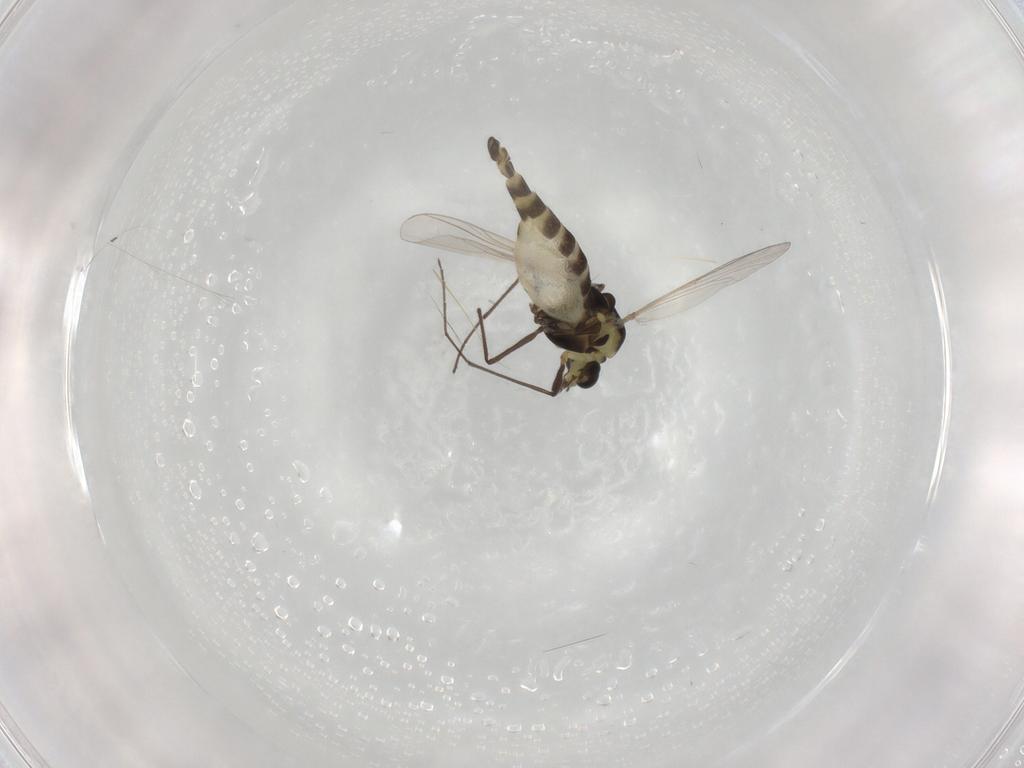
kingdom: Animalia
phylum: Arthropoda
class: Insecta
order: Diptera
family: Chironomidae
